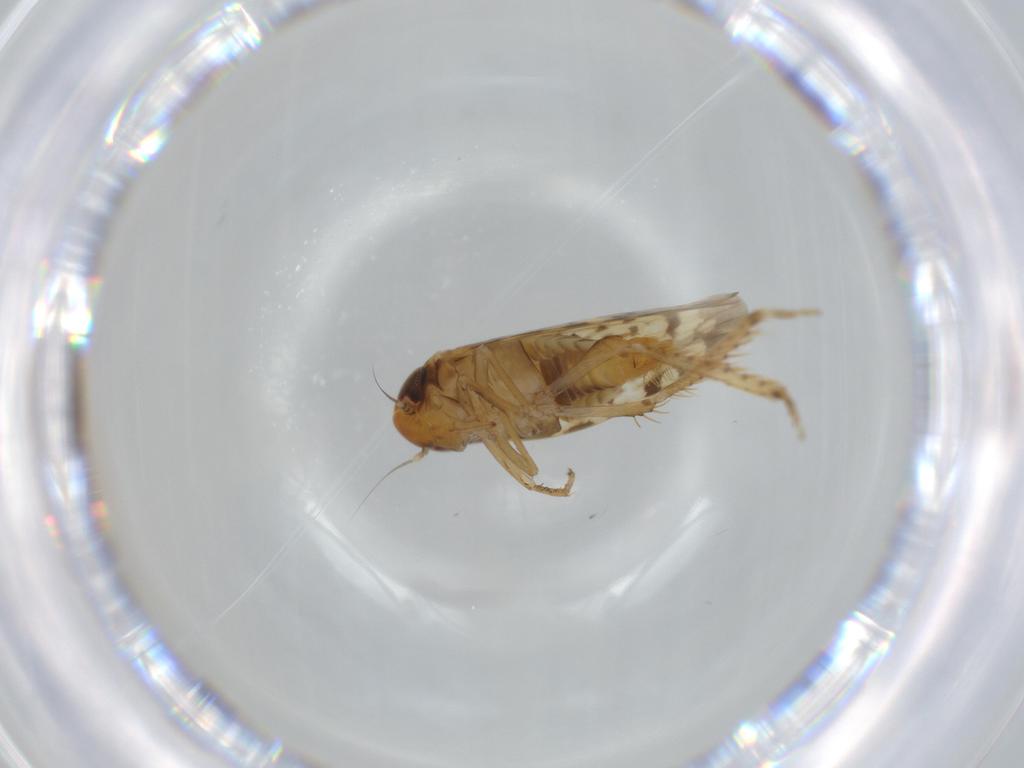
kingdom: Animalia
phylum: Arthropoda
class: Insecta
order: Hemiptera
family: Cicadellidae
